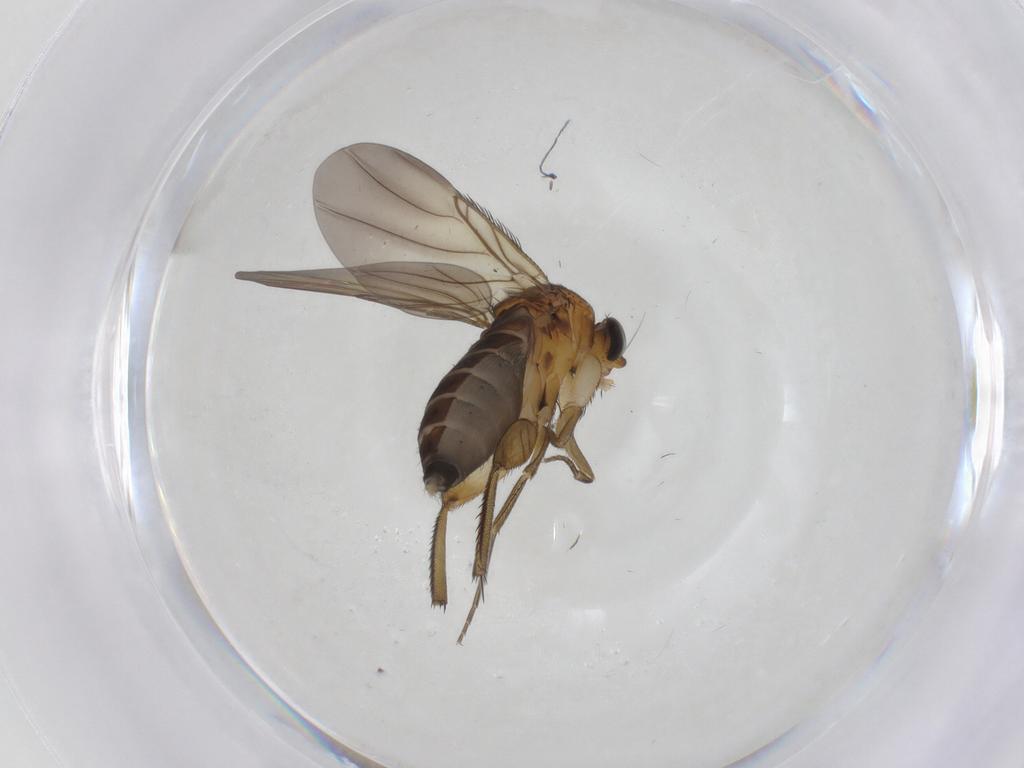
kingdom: Animalia
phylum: Arthropoda
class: Insecta
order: Diptera
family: Phoridae
